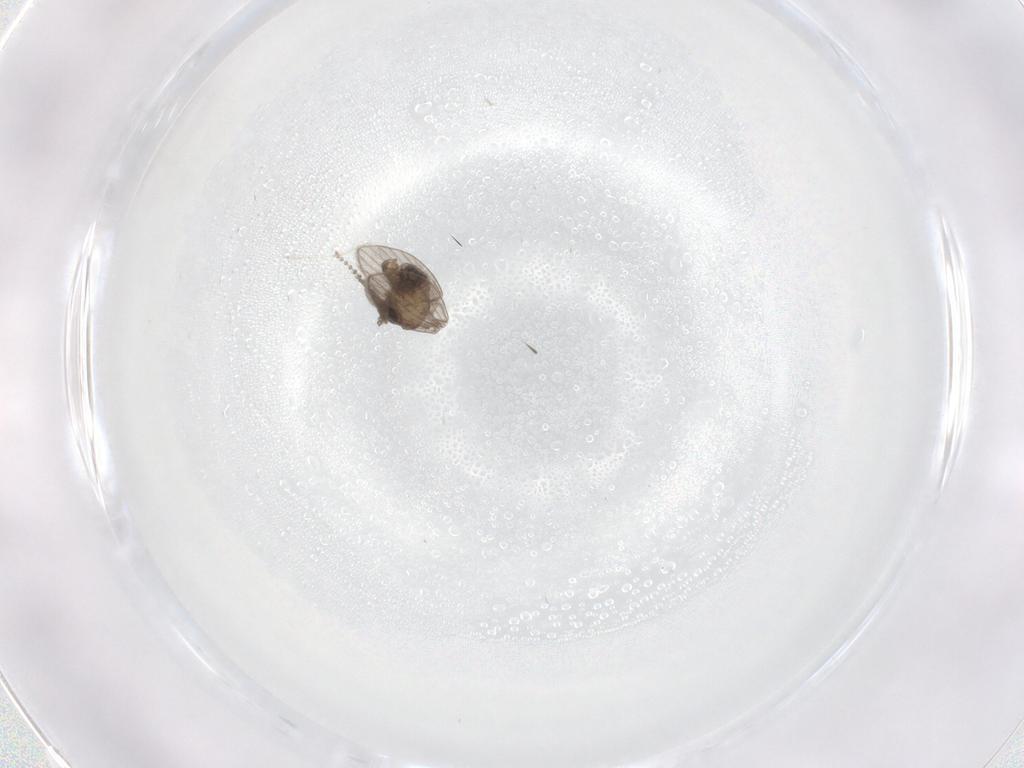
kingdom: Animalia
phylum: Arthropoda
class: Insecta
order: Diptera
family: Psychodidae
